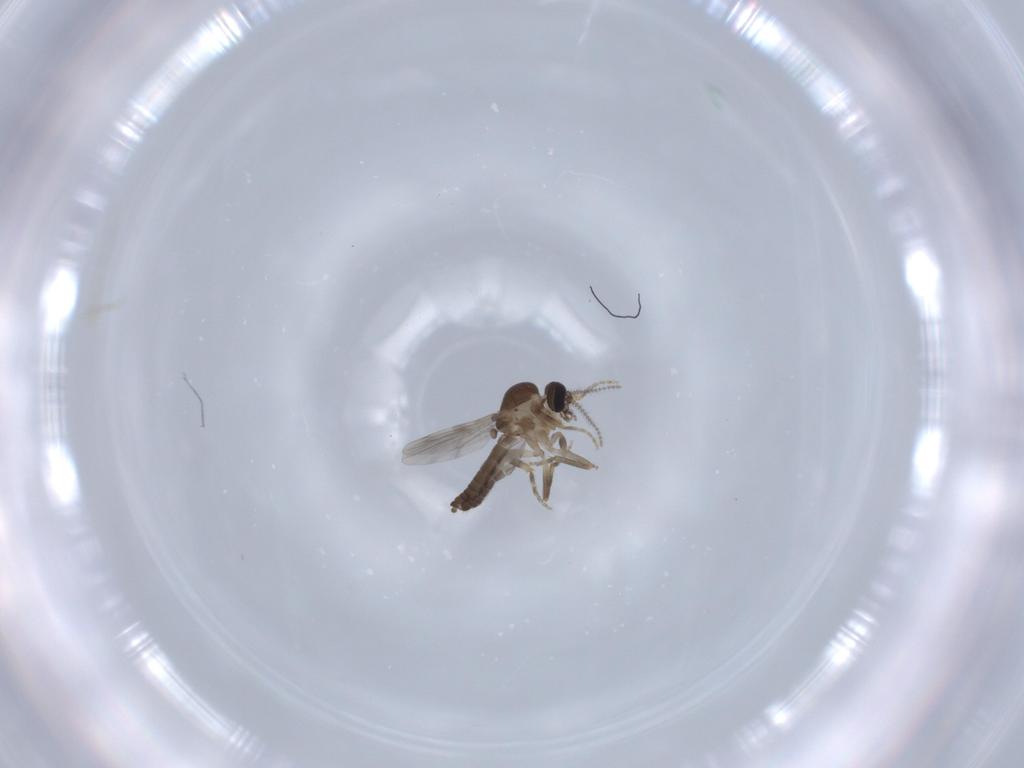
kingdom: Animalia
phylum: Arthropoda
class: Insecta
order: Diptera
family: Ceratopogonidae
